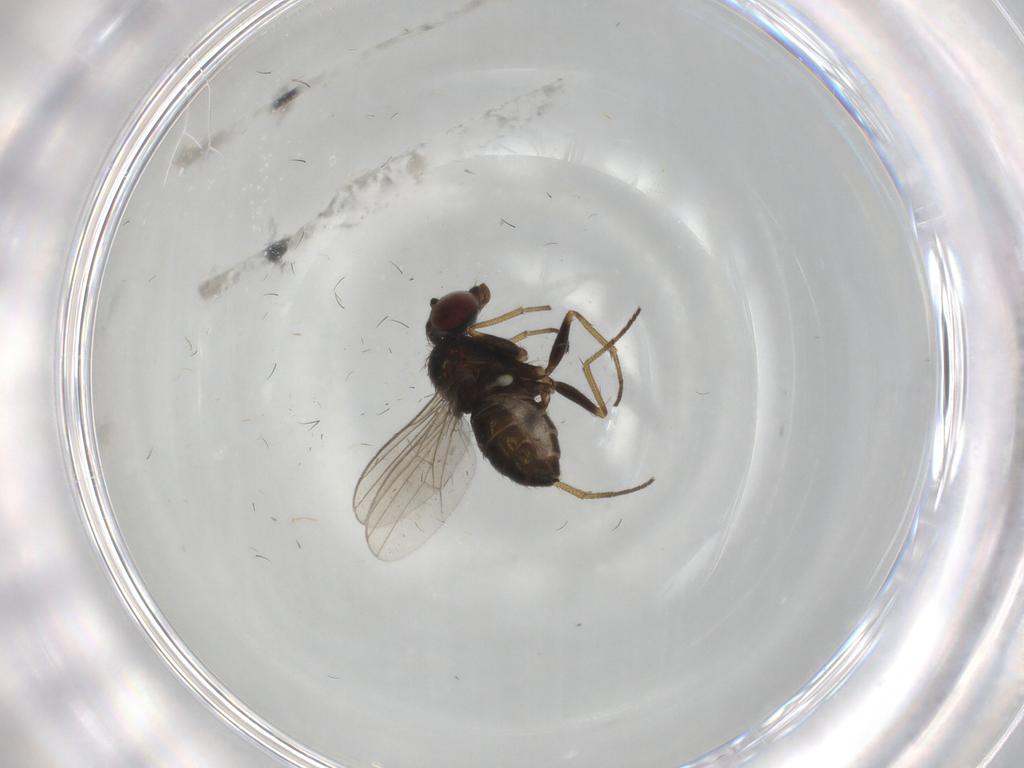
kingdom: Animalia
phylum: Arthropoda
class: Insecta
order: Diptera
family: Dolichopodidae
